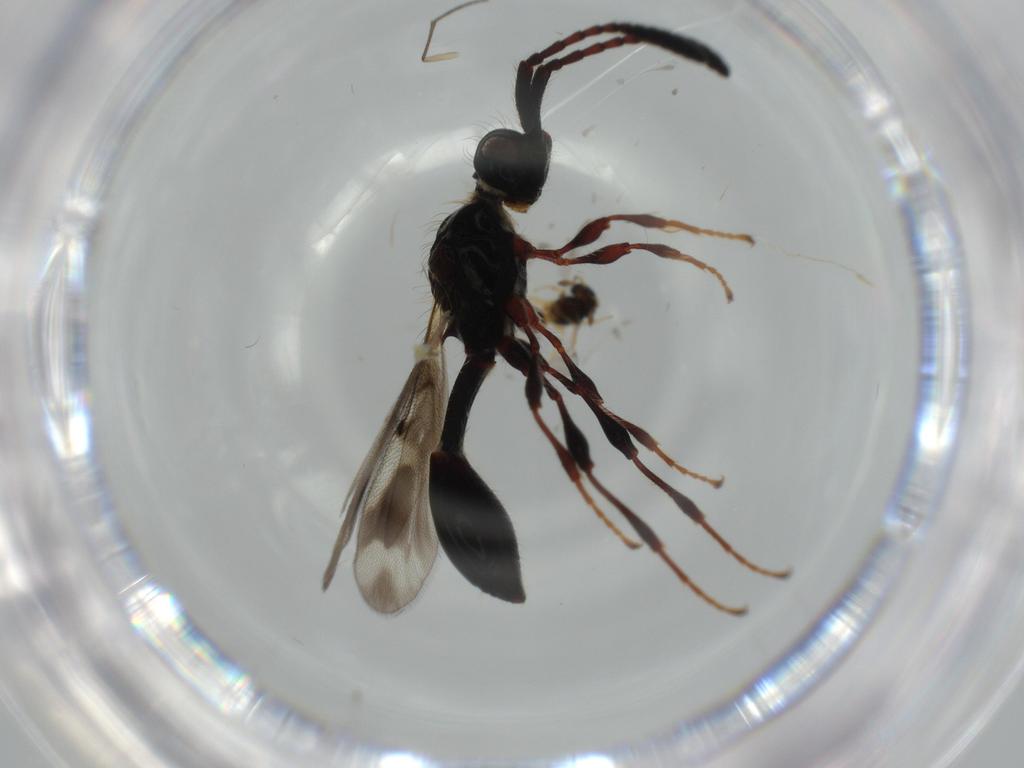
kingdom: Animalia
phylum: Arthropoda
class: Insecta
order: Hymenoptera
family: Diapriidae
